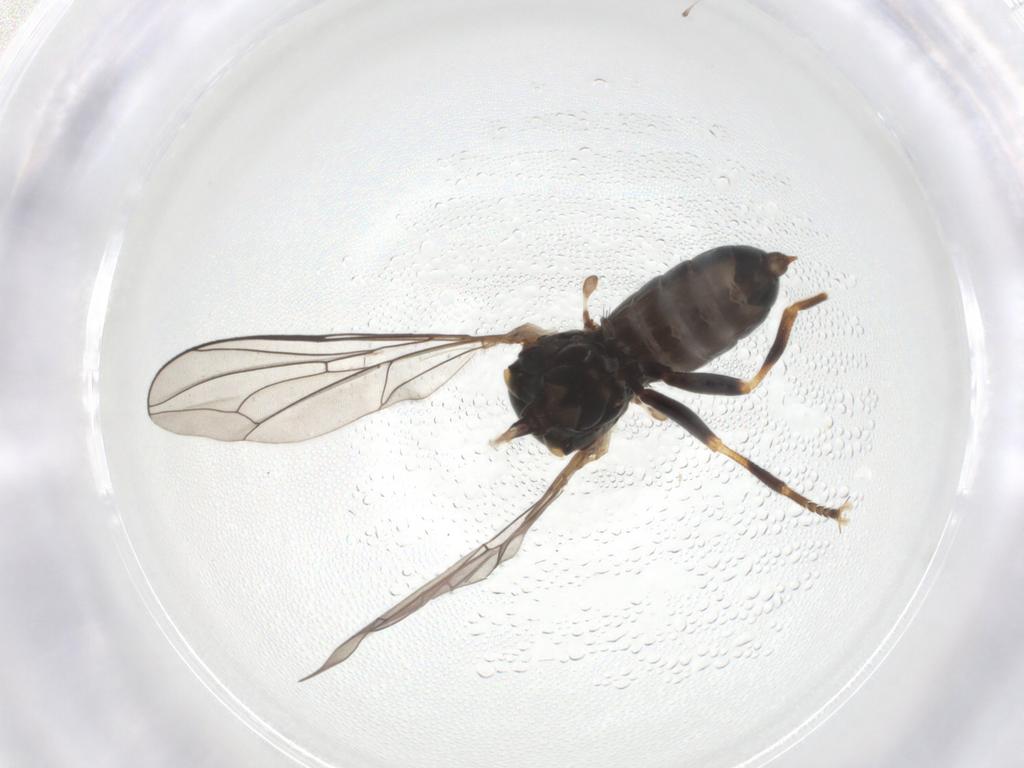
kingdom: Animalia
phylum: Arthropoda
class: Insecta
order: Diptera
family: Pipunculidae
